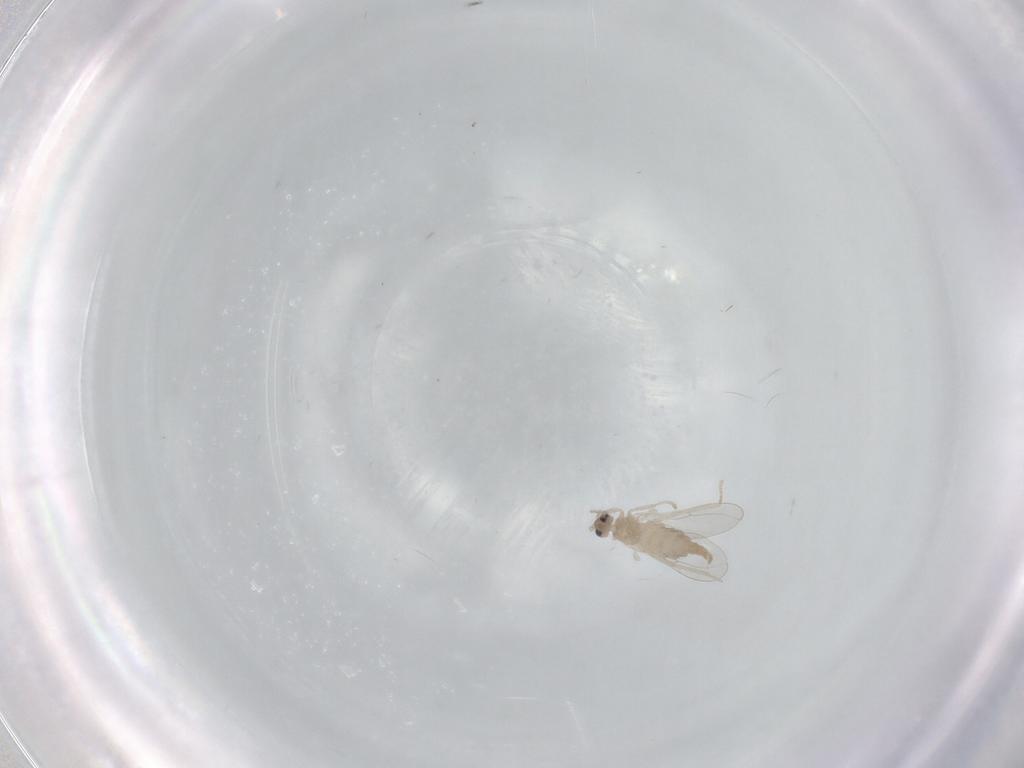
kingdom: Animalia
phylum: Arthropoda
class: Insecta
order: Diptera
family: Cecidomyiidae
